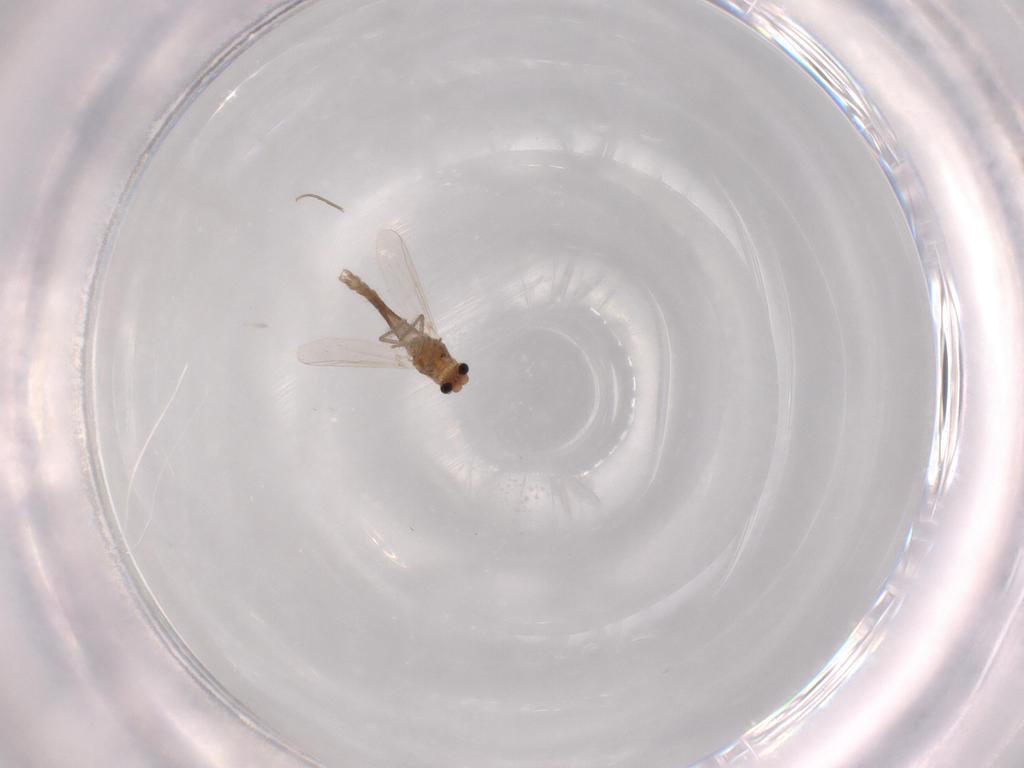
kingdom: Animalia
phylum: Arthropoda
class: Insecta
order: Diptera
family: Chironomidae
